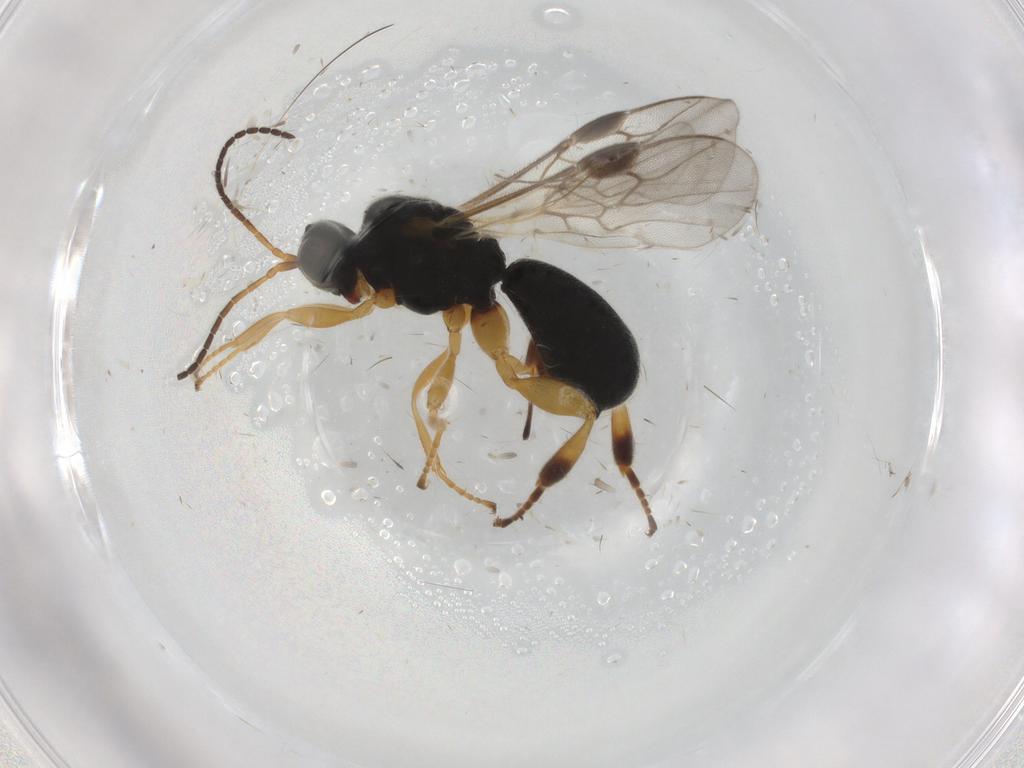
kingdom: Animalia
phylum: Arthropoda
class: Insecta
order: Hymenoptera
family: Braconidae
